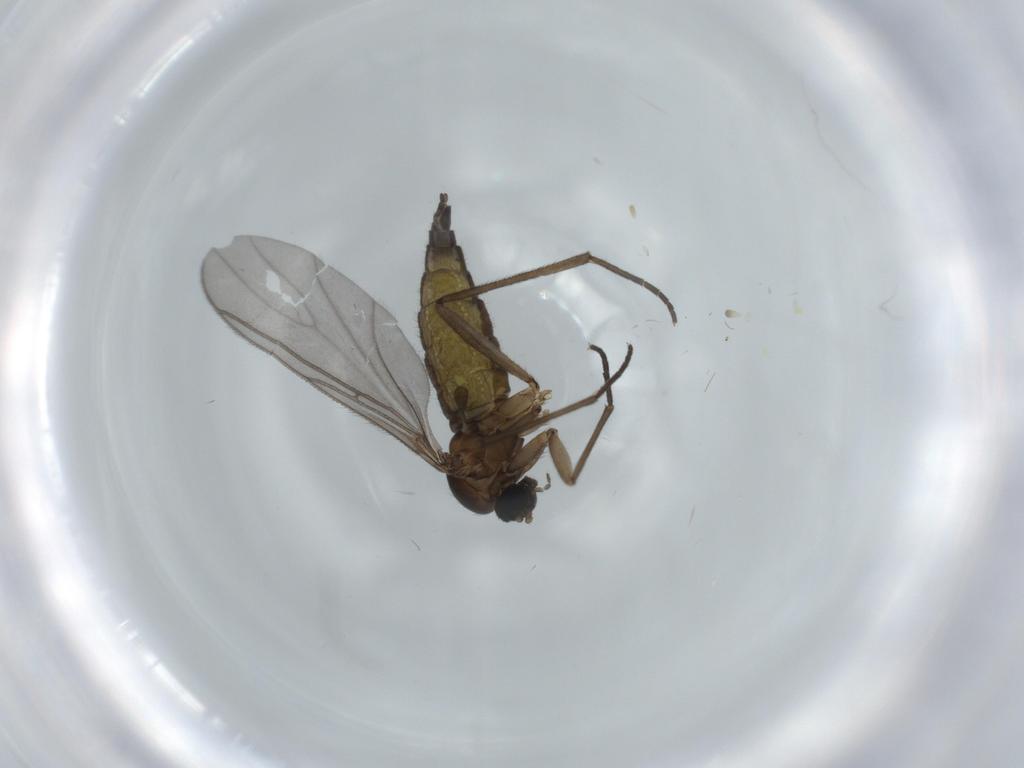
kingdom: Animalia
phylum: Arthropoda
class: Insecta
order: Diptera
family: Sciaridae
